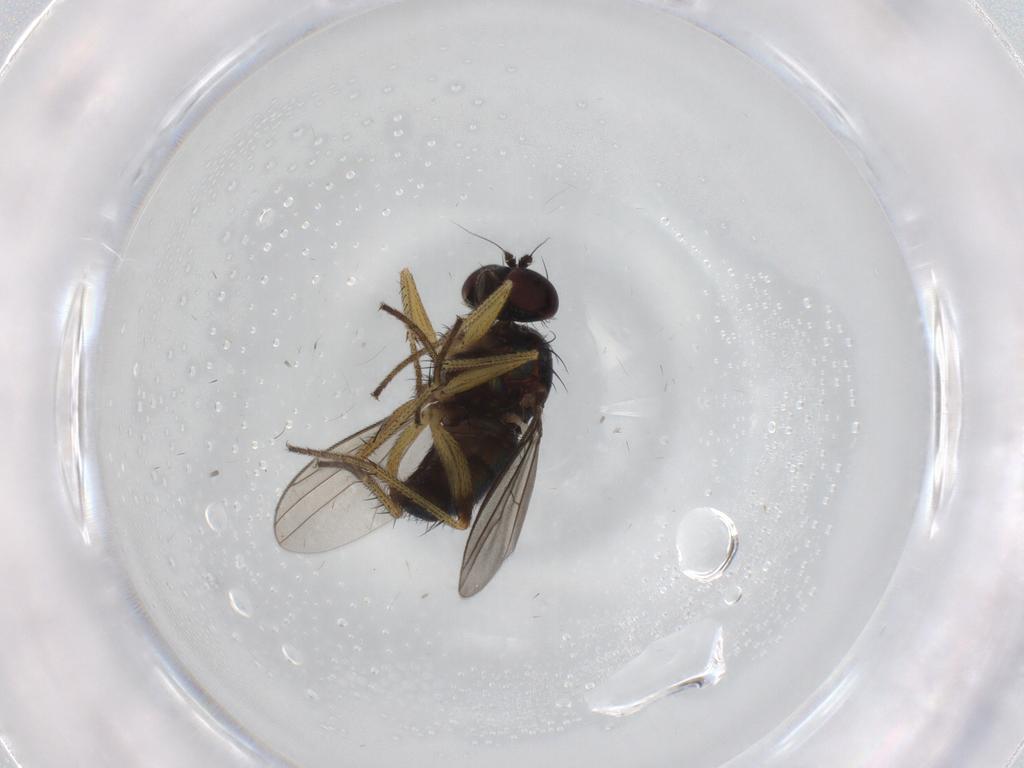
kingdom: Animalia
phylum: Arthropoda
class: Insecta
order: Diptera
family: Dolichopodidae
